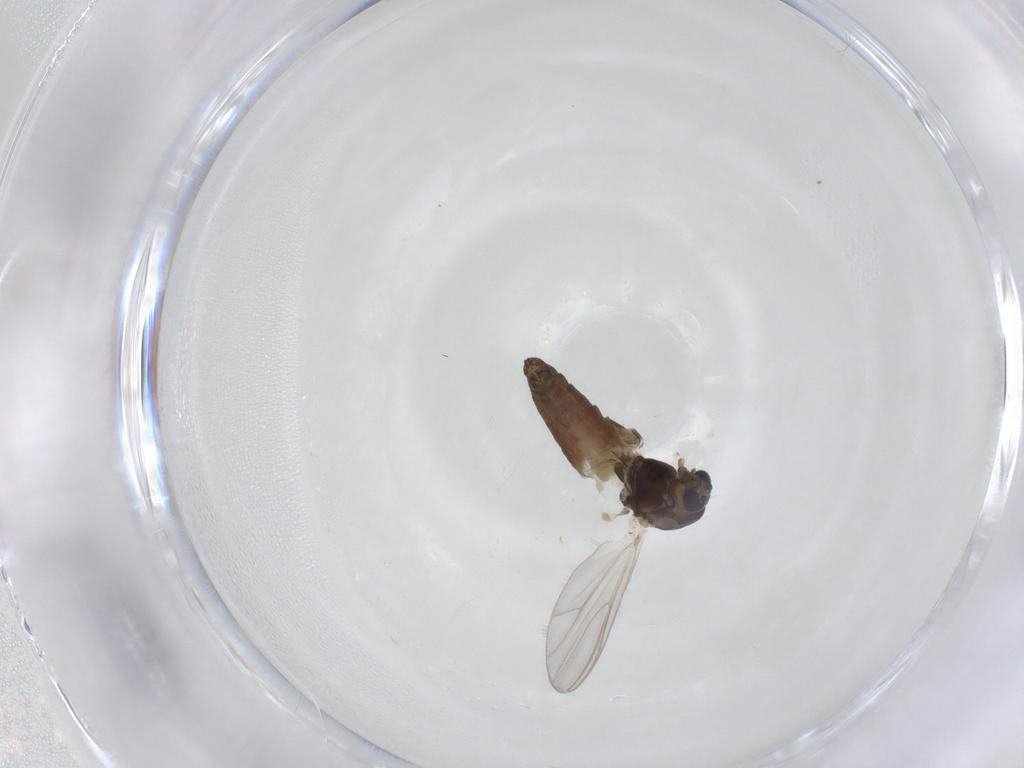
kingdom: Animalia
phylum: Arthropoda
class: Insecta
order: Diptera
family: Chironomidae
